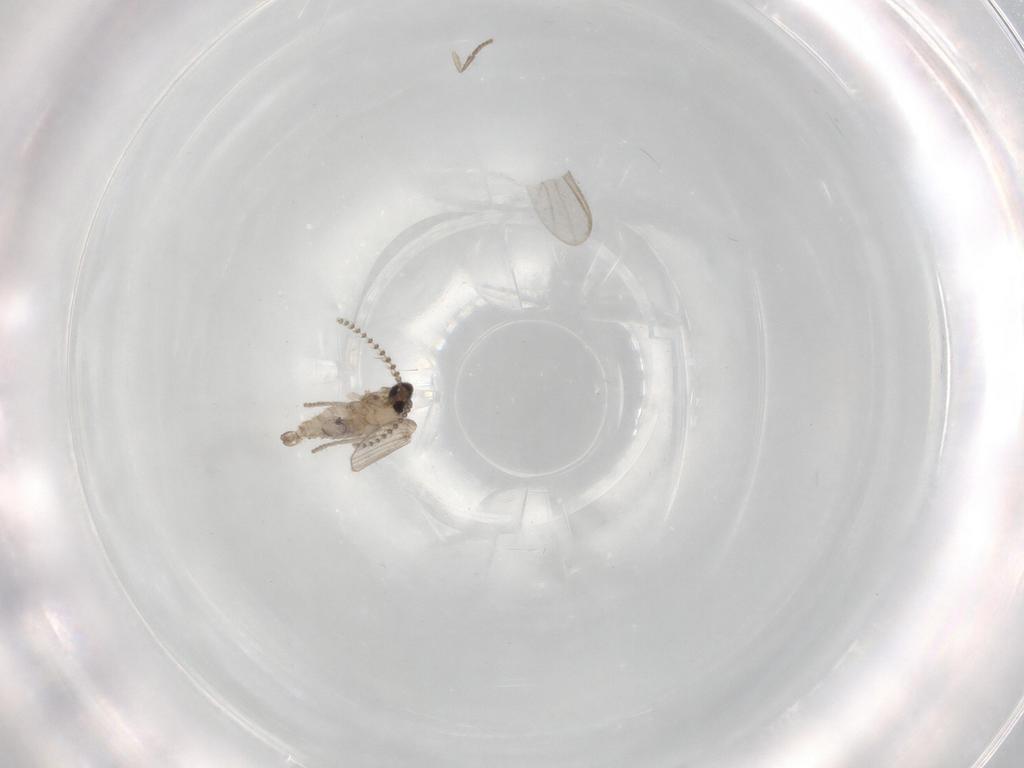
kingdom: Animalia
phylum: Arthropoda
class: Insecta
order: Diptera
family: Psychodidae
